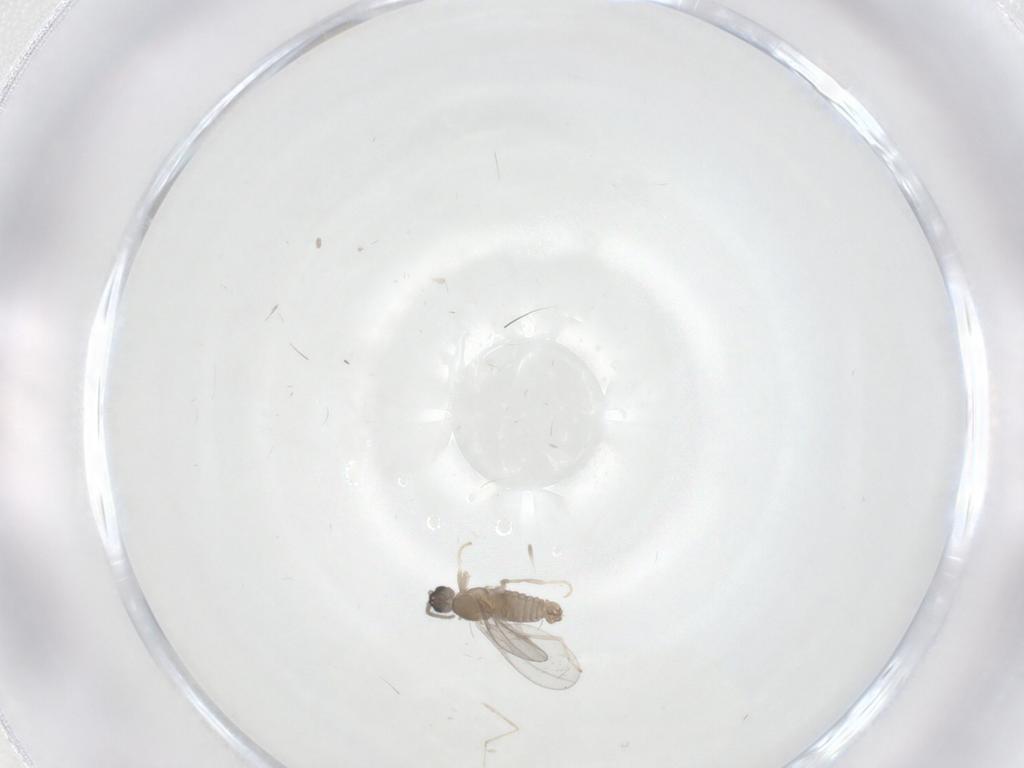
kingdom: Animalia
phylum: Arthropoda
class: Insecta
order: Diptera
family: Cecidomyiidae
